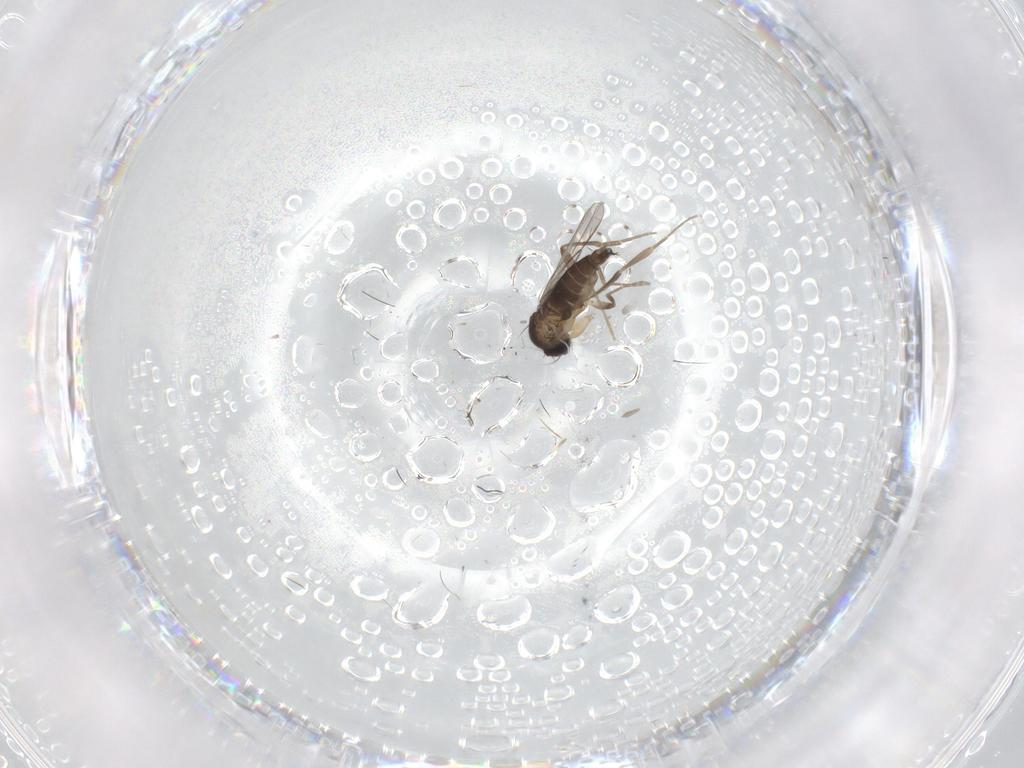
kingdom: Animalia
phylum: Arthropoda
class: Insecta
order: Diptera
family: Phoridae
